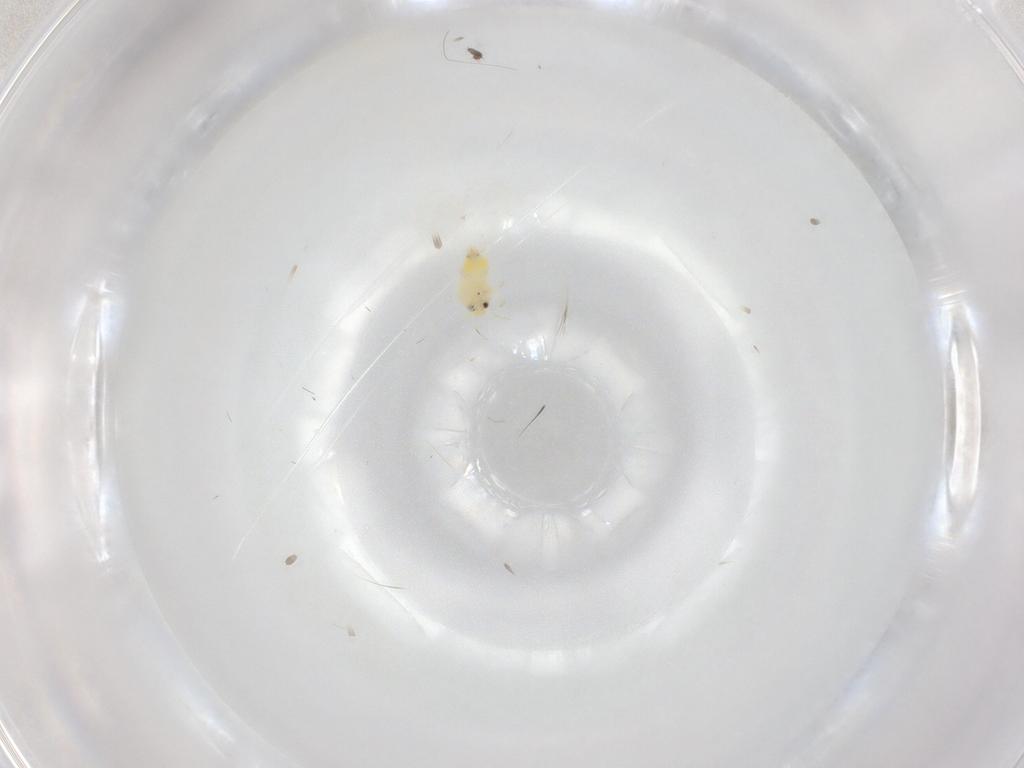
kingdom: Animalia
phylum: Arthropoda
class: Insecta
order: Hemiptera
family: Aleyrodidae
